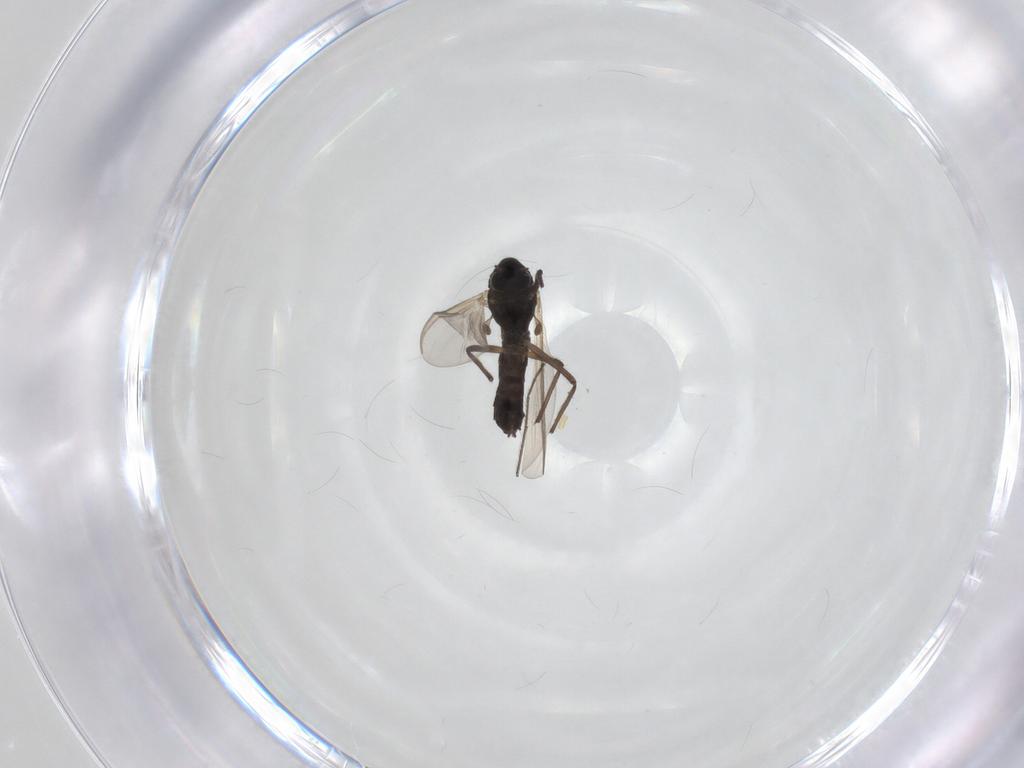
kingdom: Animalia
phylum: Arthropoda
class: Insecta
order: Diptera
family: Chironomidae
